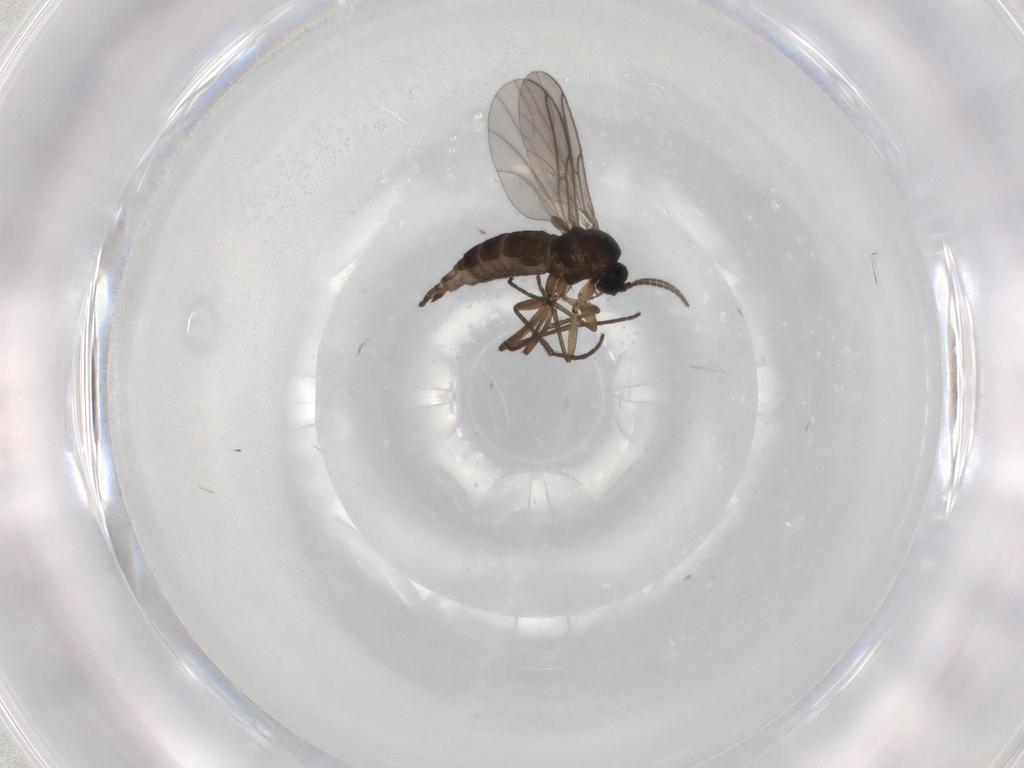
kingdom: Animalia
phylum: Arthropoda
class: Insecta
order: Diptera
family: Sciaridae
